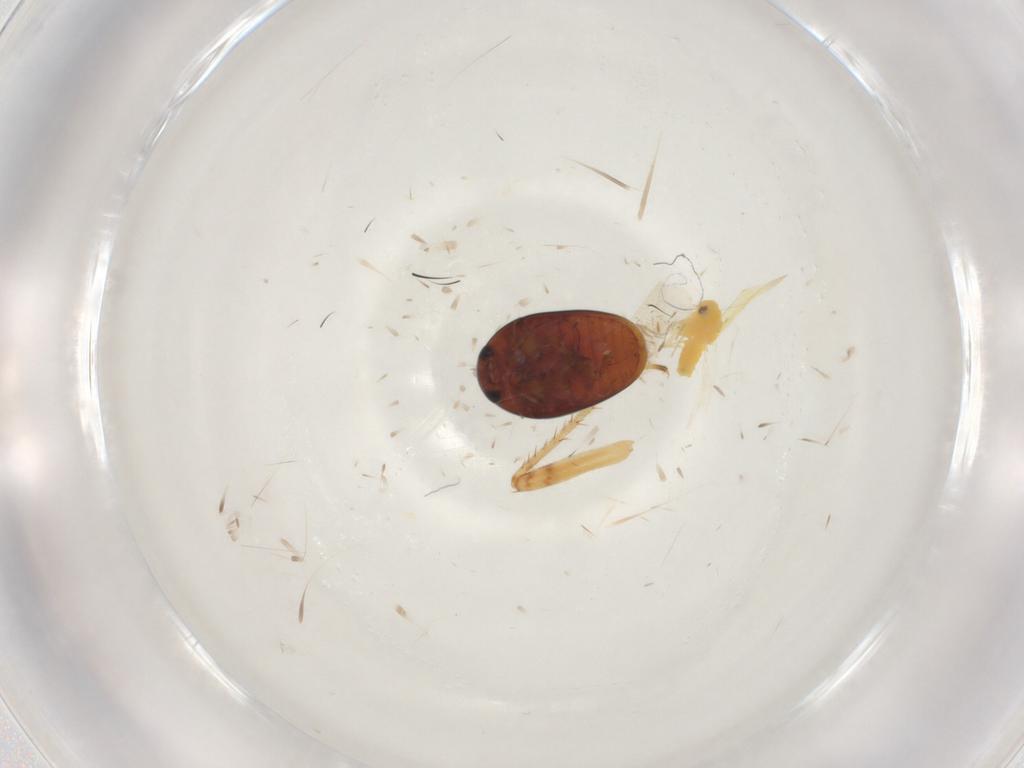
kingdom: Animalia
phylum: Arthropoda
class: Insecta
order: Coleoptera
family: Phalacridae
